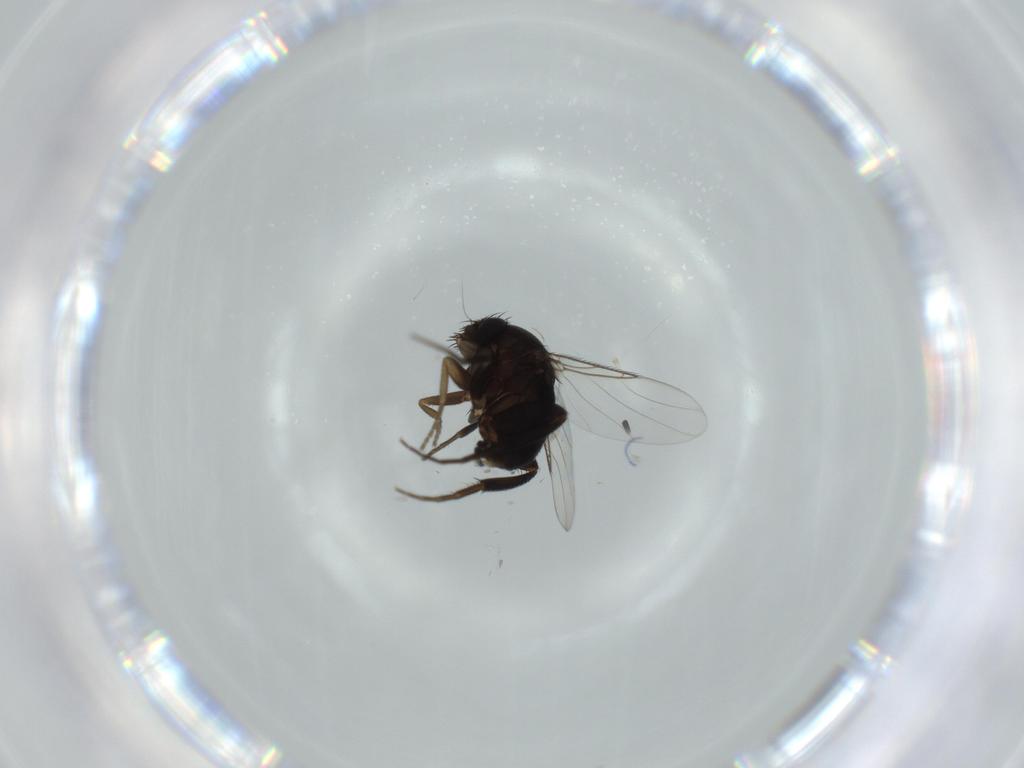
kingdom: Animalia
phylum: Arthropoda
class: Insecta
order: Diptera
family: Phoridae
